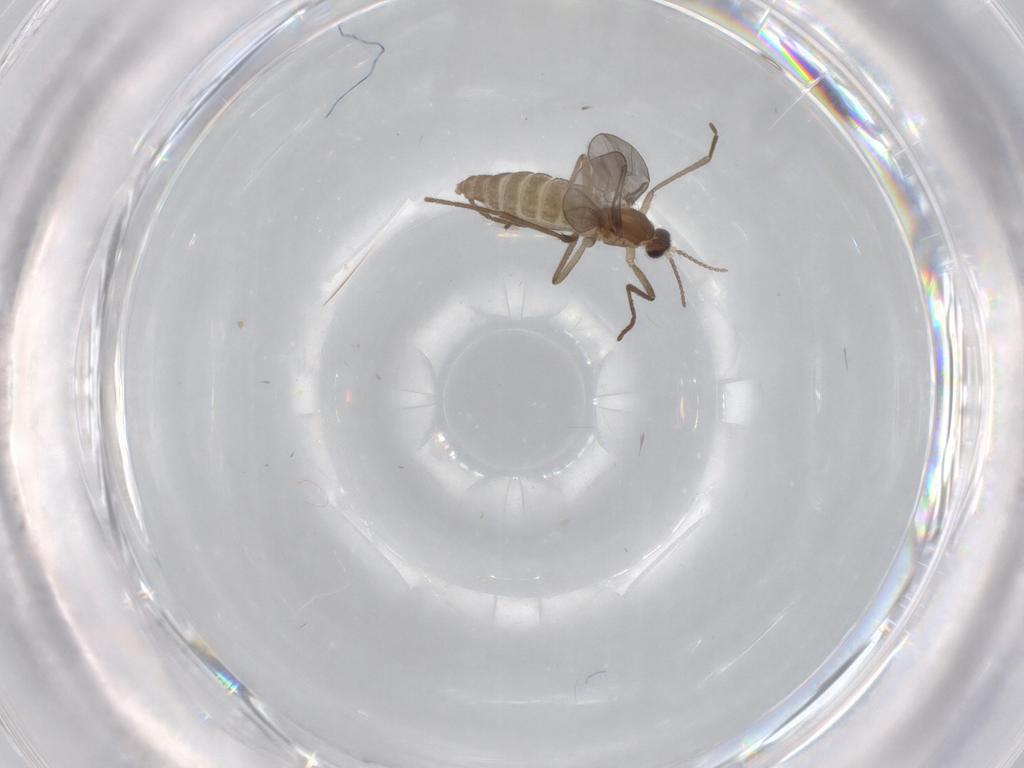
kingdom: Animalia
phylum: Arthropoda
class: Insecta
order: Diptera
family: Cecidomyiidae
